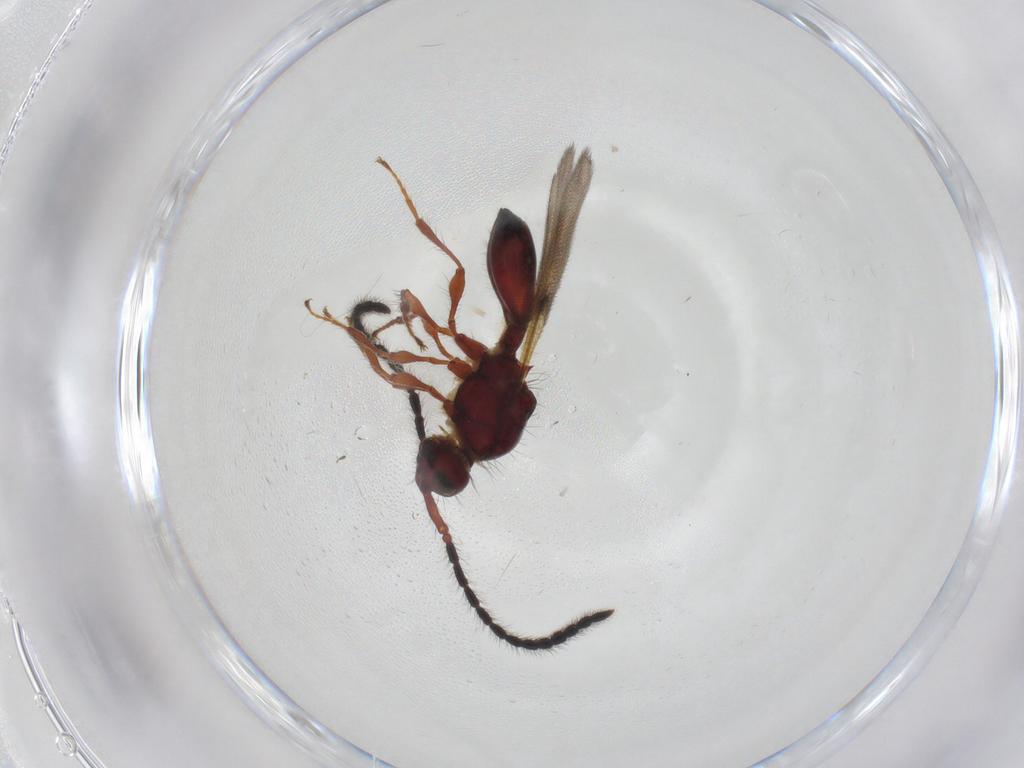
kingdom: Animalia
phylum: Arthropoda
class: Insecta
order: Hymenoptera
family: Diapriidae
